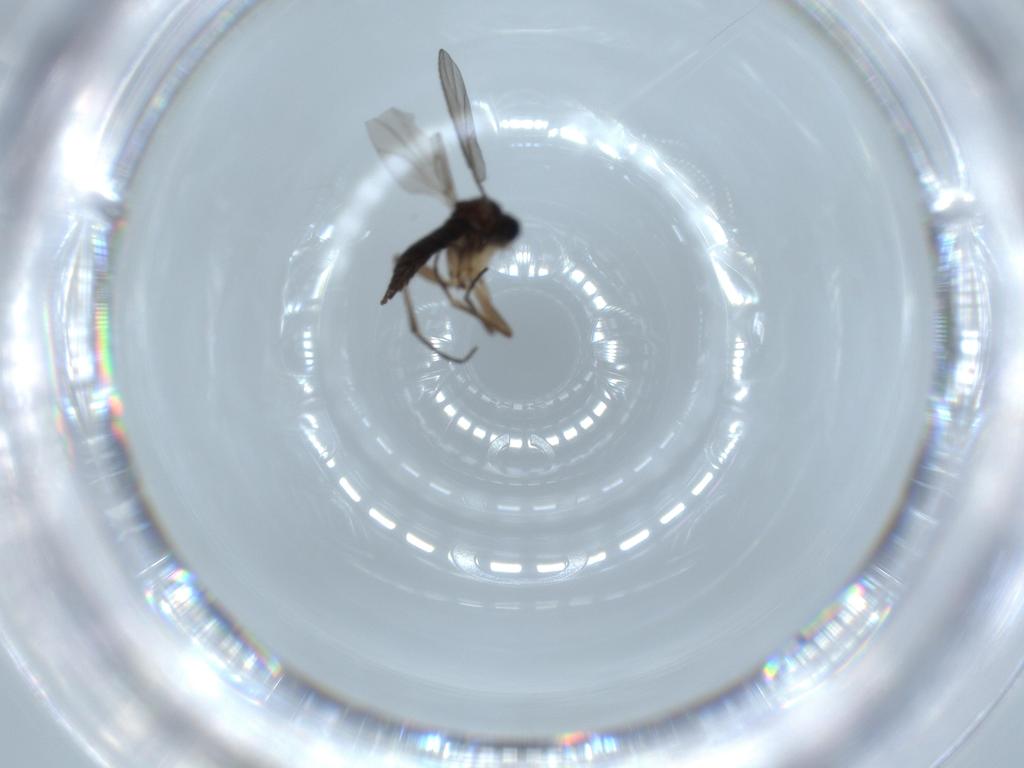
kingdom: Animalia
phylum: Arthropoda
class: Insecta
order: Diptera
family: Sciaridae
